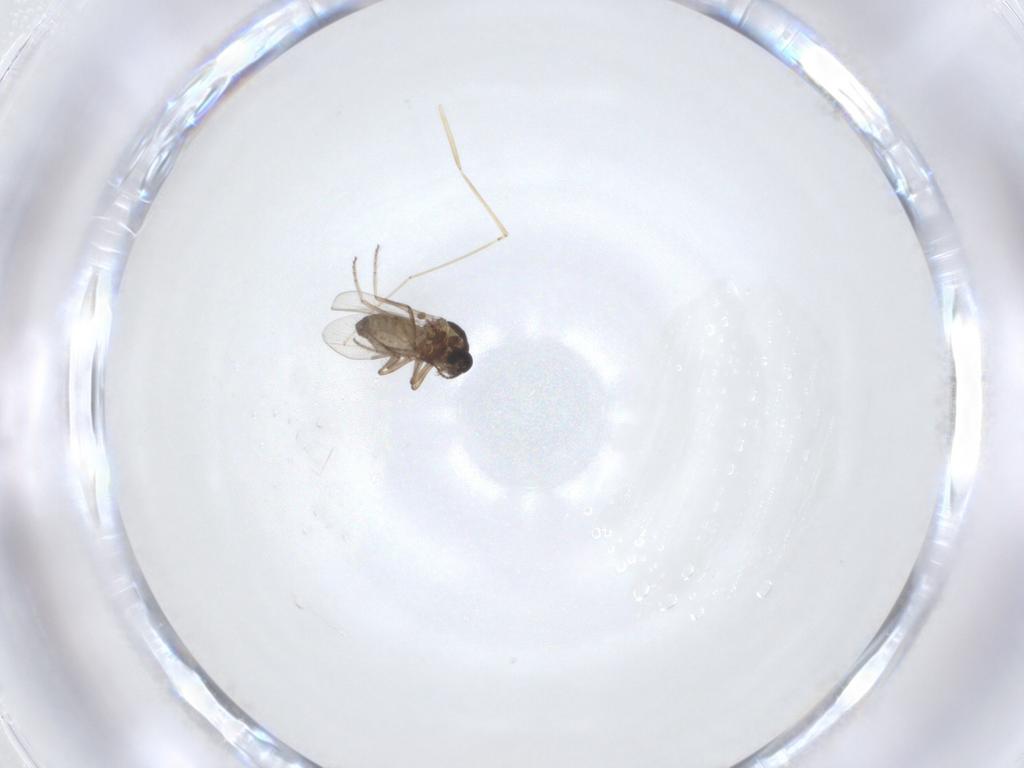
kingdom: Animalia
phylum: Arthropoda
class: Insecta
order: Diptera
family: Ceratopogonidae
